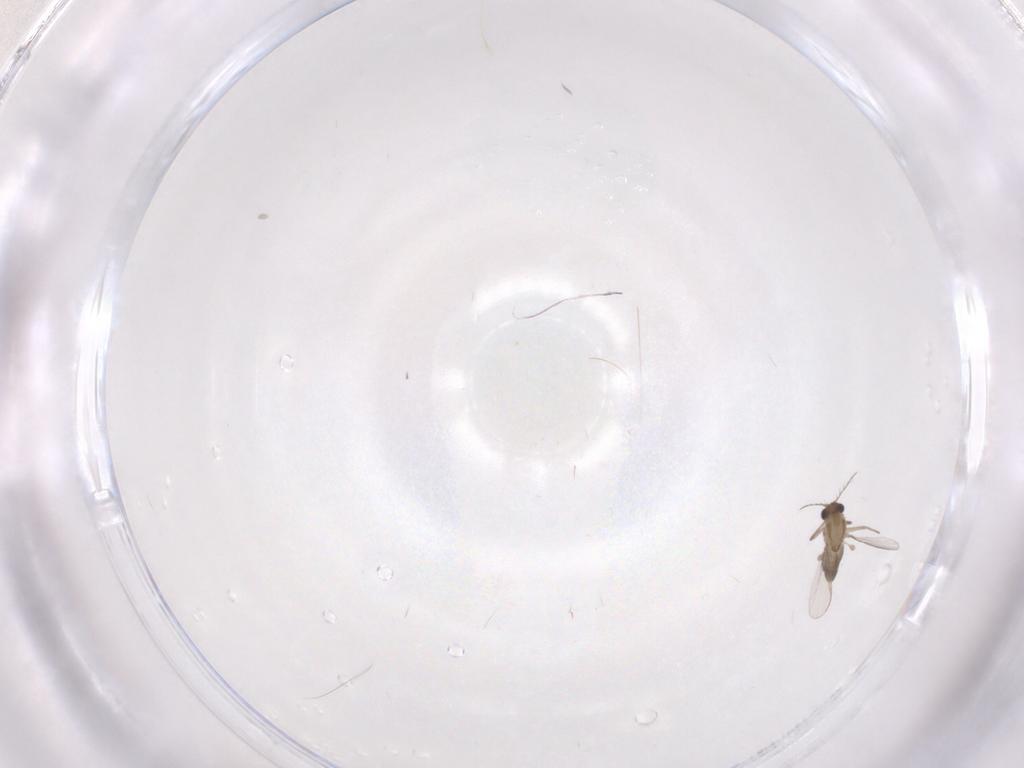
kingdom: Animalia
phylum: Arthropoda
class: Insecta
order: Diptera
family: Chironomidae
